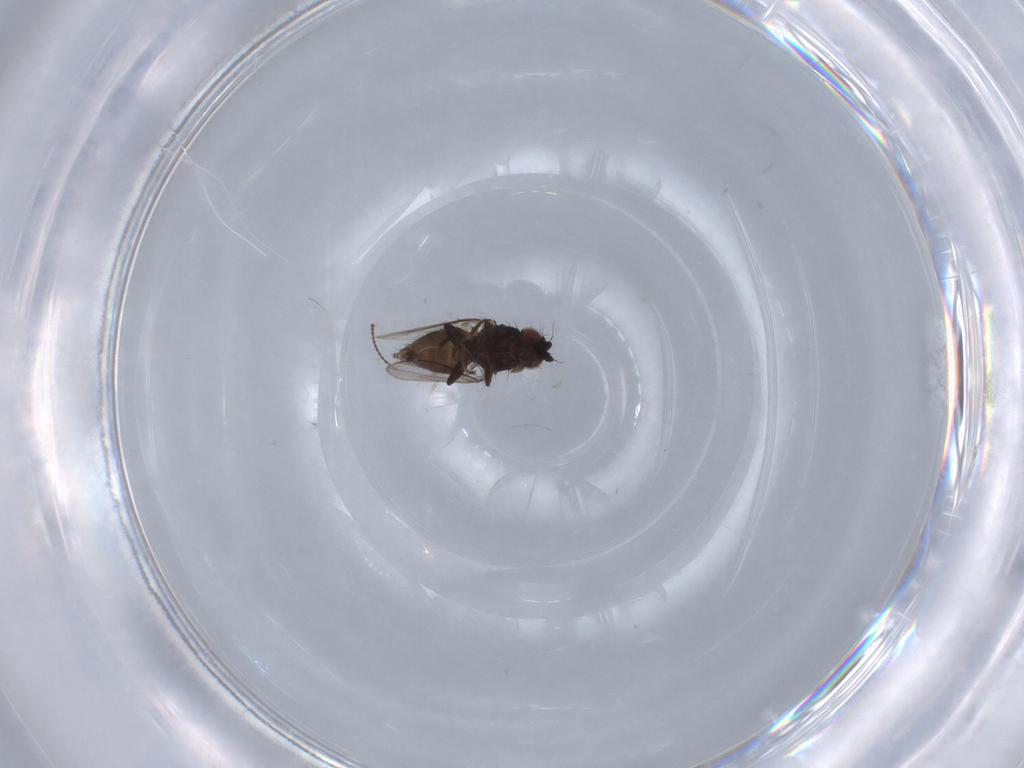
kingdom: Animalia
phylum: Arthropoda
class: Insecta
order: Diptera
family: Milichiidae
